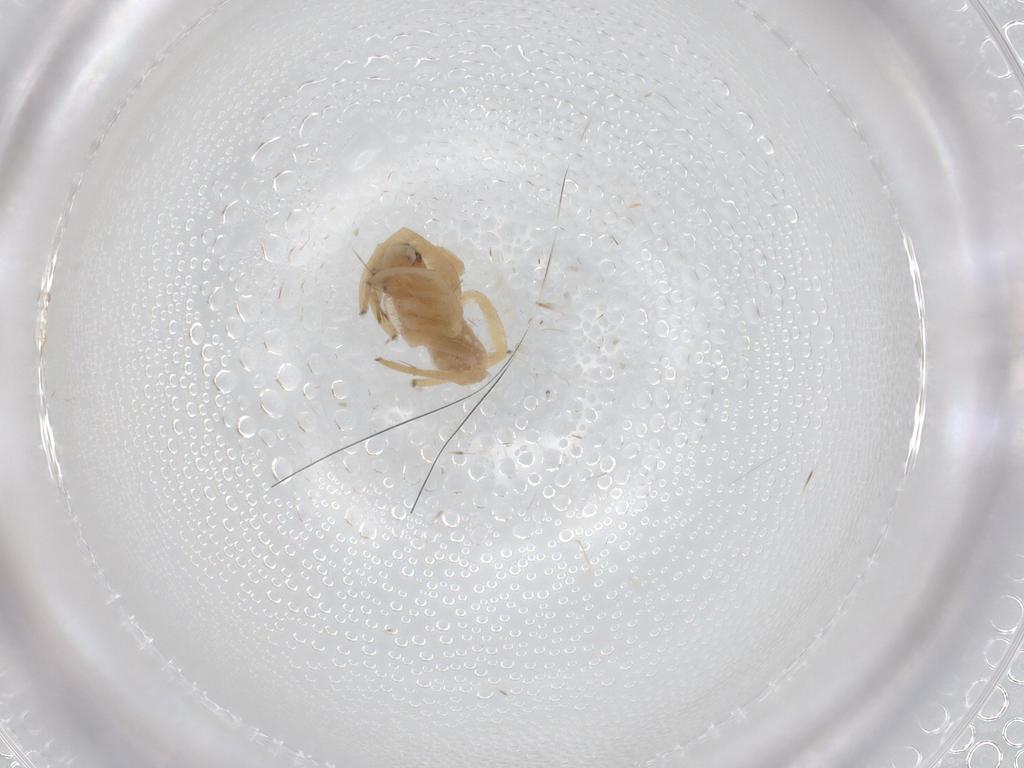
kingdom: Animalia
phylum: Arthropoda
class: Arachnida
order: Araneae
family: Cheiracanthiidae
